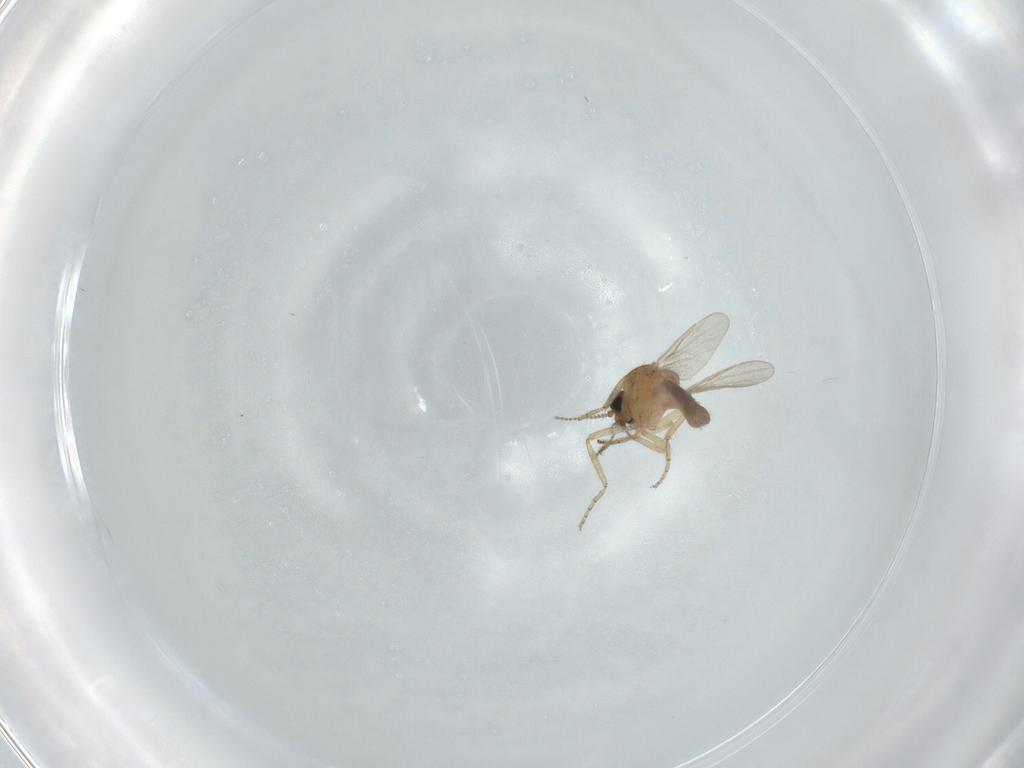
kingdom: Animalia
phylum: Arthropoda
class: Insecta
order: Diptera
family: Ceratopogonidae
